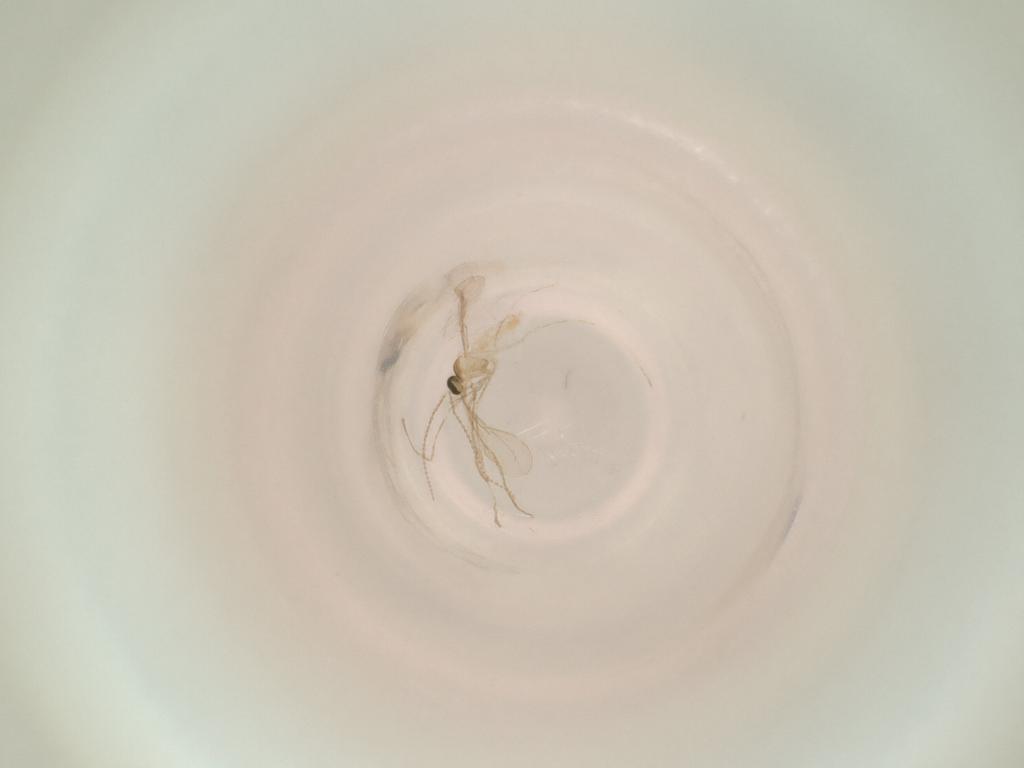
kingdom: Animalia
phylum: Arthropoda
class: Insecta
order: Diptera
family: Cecidomyiidae
